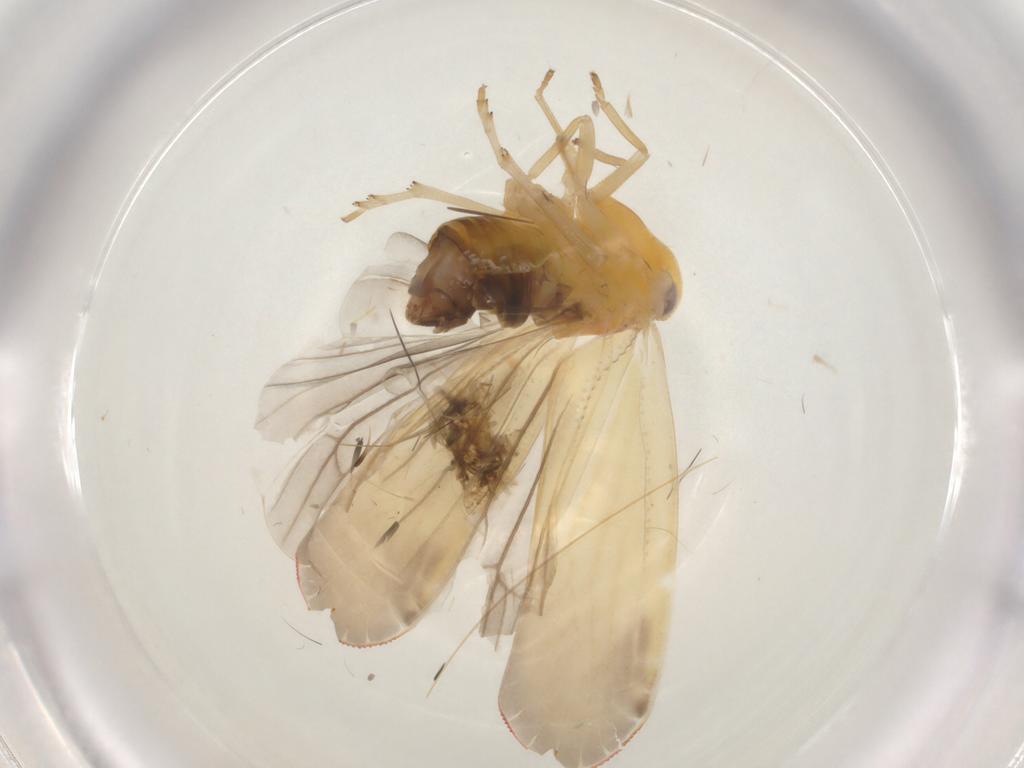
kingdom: Animalia
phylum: Arthropoda
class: Insecta
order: Hemiptera
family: Derbidae
